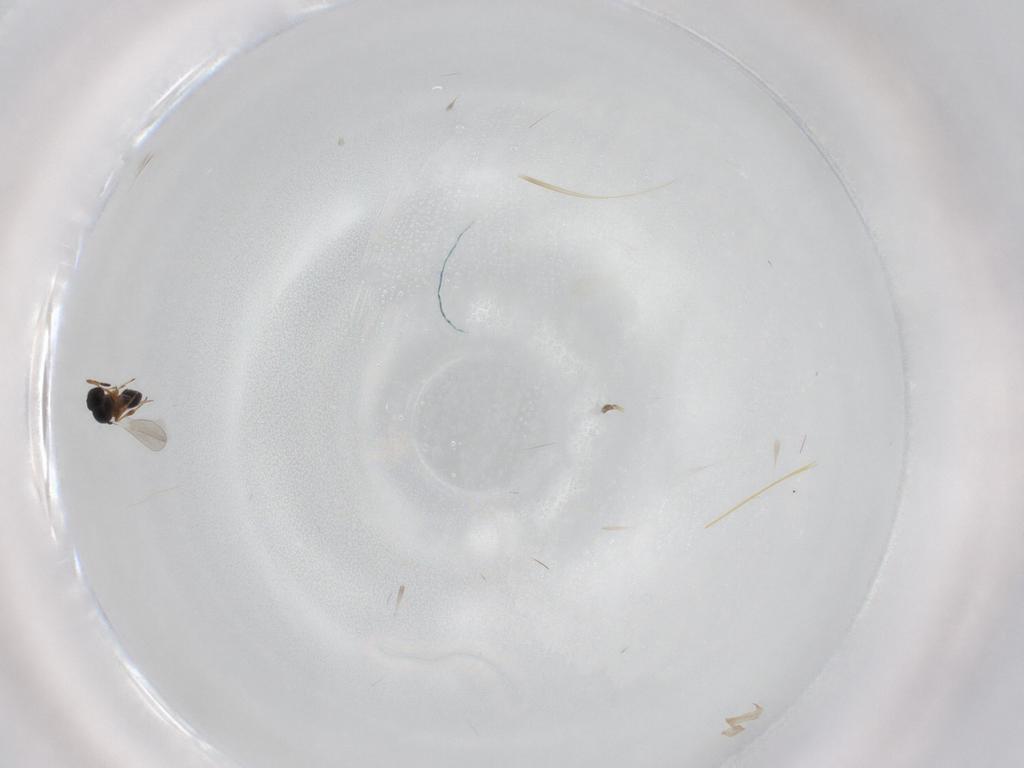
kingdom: Animalia
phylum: Arthropoda
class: Insecta
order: Hymenoptera
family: Platygastridae
